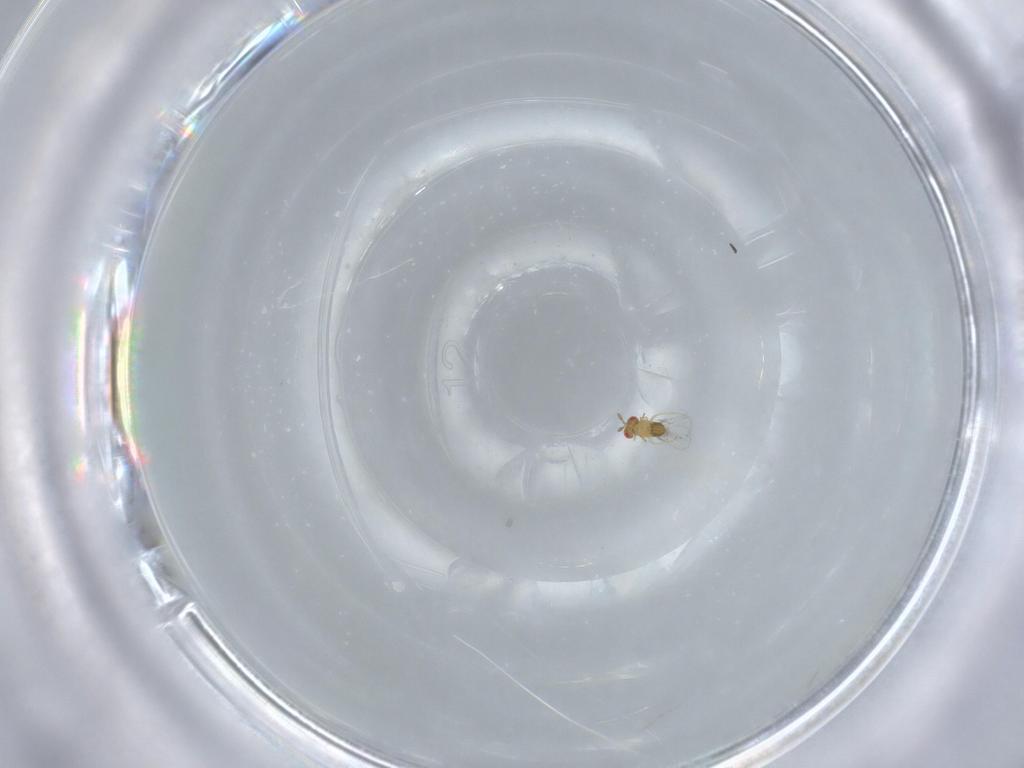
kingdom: Animalia
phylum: Arthropoda
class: Insecta
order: Hymenoptera
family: Trichogrammatidae
